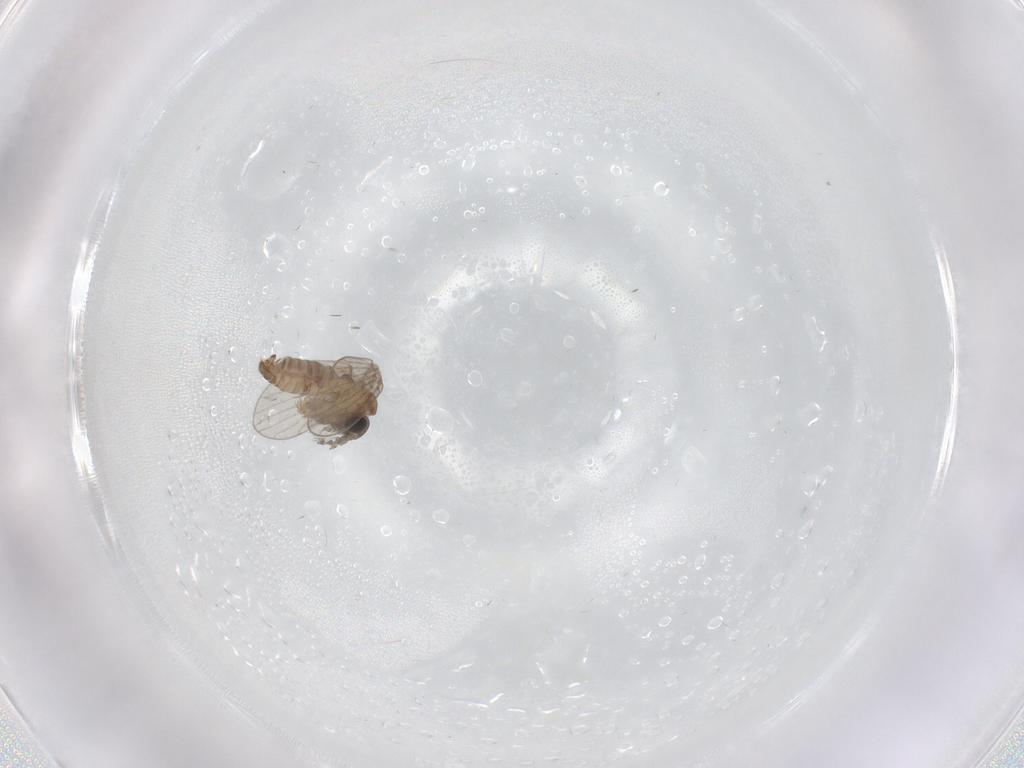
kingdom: Animalia
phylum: Arthropoda
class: Insecta
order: Diptera
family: Psychodidae
